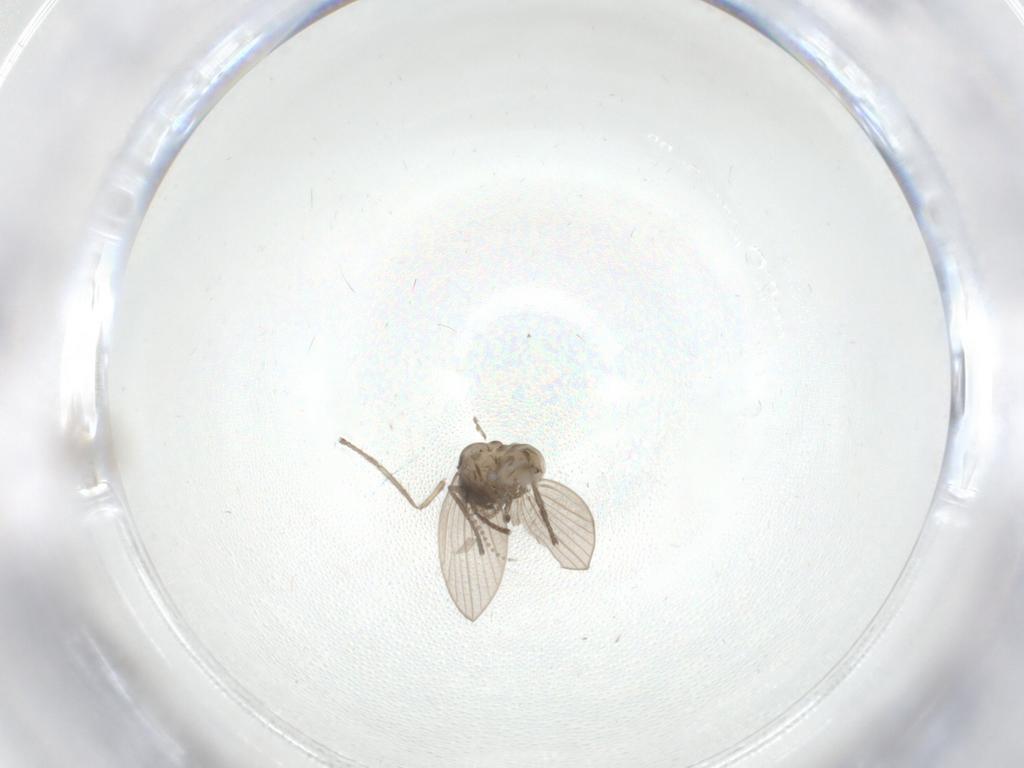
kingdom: Animalia
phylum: Arthropoda
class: Insecta
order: Diptera
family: Psychodidae
